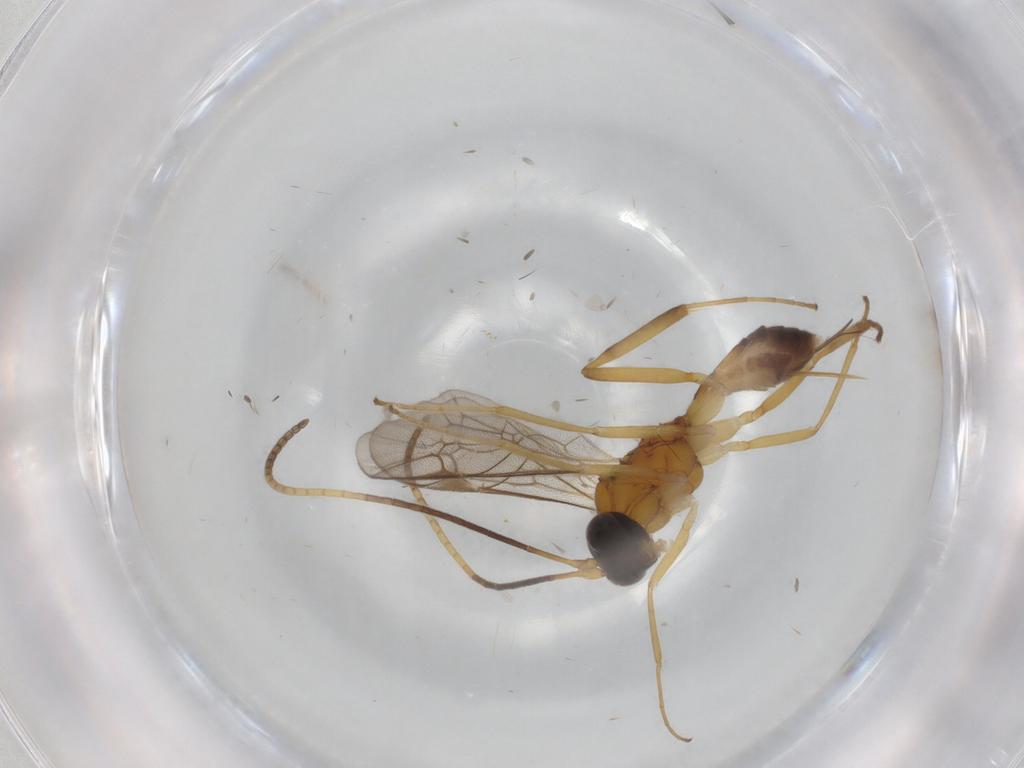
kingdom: Animalia
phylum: Arthropoda
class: Insecta
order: Hymenoptera
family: Ichneumonidae
